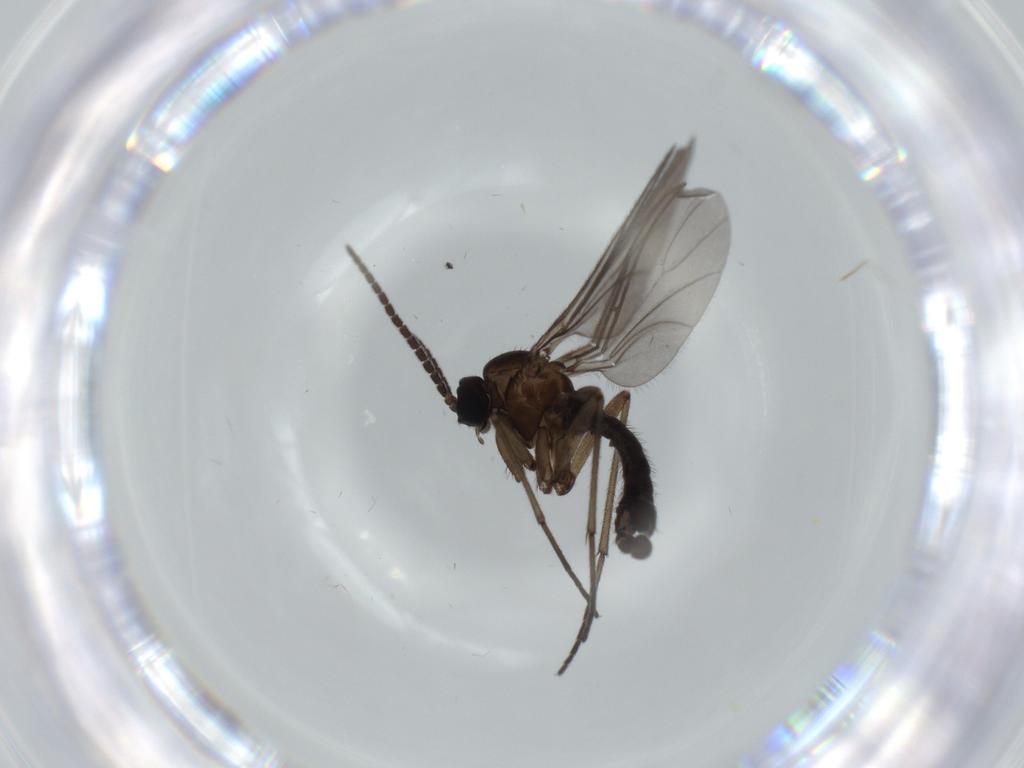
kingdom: Animalia
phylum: Arthropoda
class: Insecta
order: Diptera
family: Sciaridae
